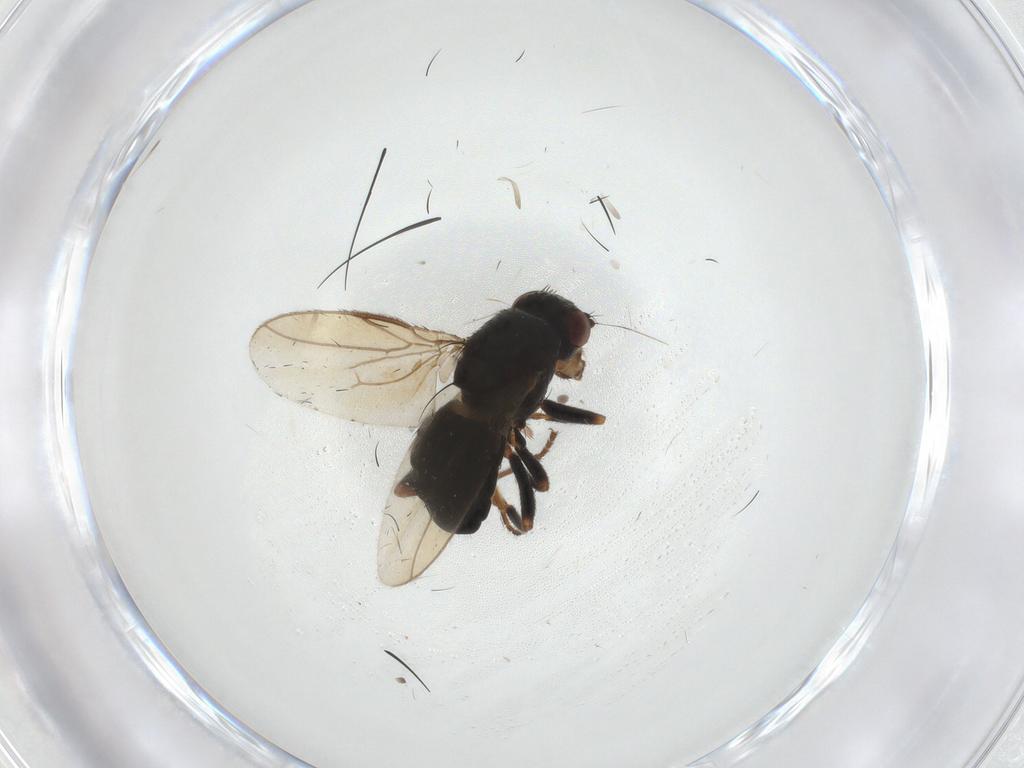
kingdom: Animalia
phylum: Arthropoda
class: Insecta
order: Diptera
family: Sphaeroceridae
